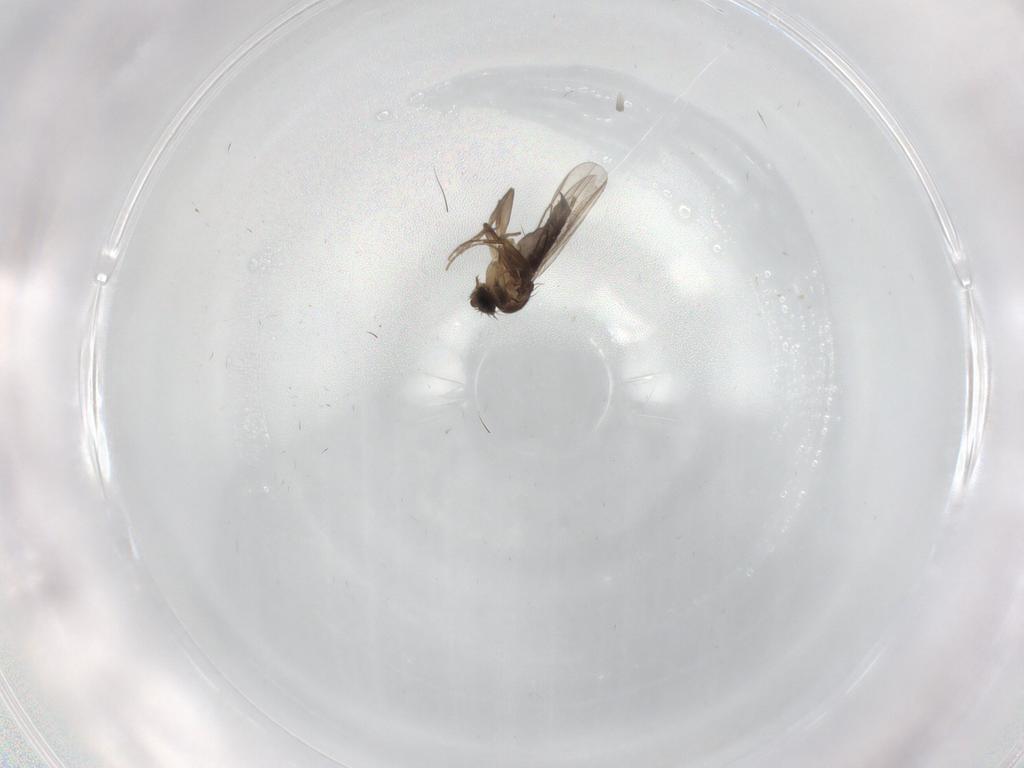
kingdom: Animalia
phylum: Arthropoda
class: Insecta
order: Diptera
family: Phoridae
